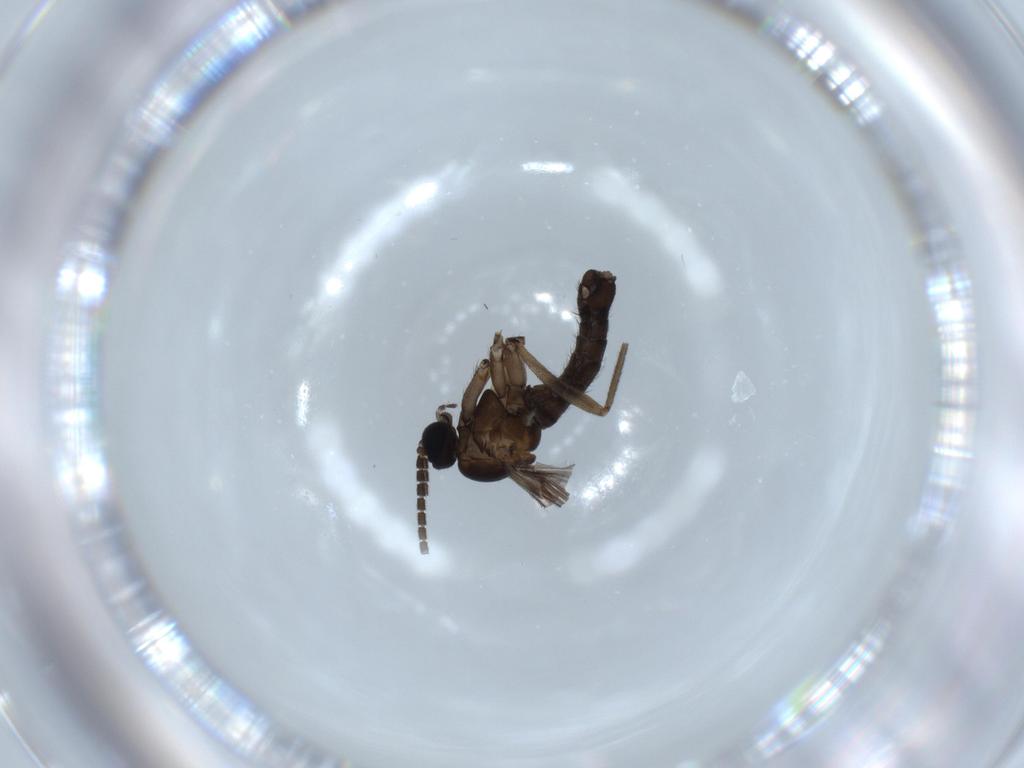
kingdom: Animalia
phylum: Arthropoda
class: Insecta
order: Diptera
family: Sciaridae
